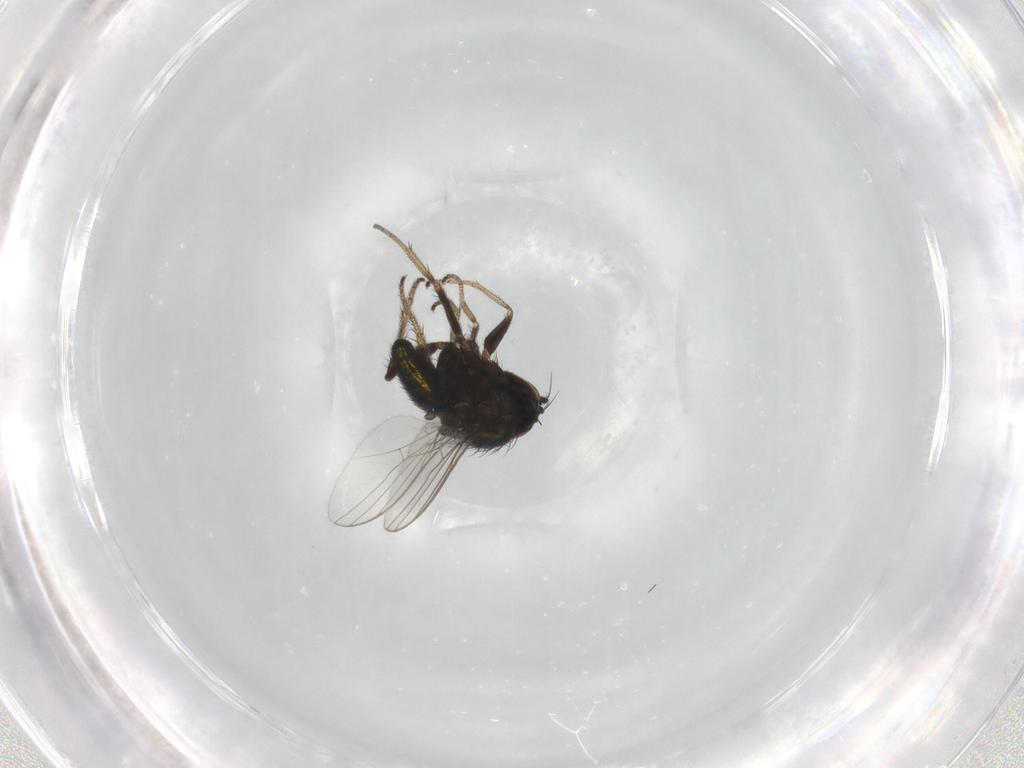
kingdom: Animalia
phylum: Arthropoda
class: Insecta
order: Diptera
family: Dolichopodidae
